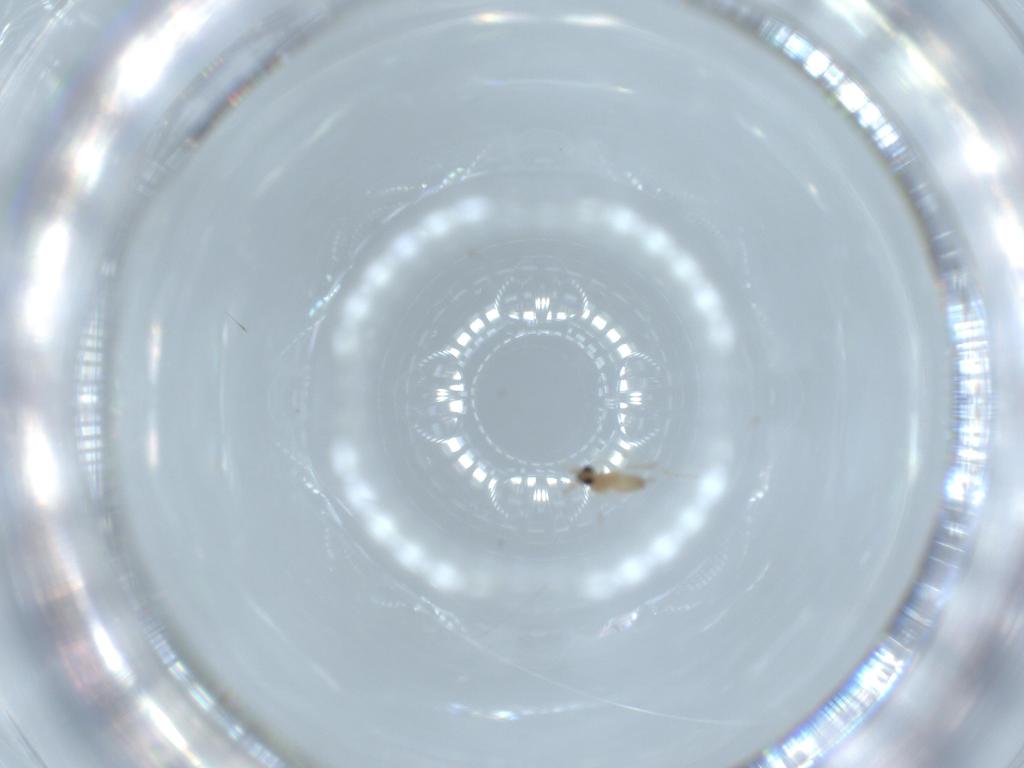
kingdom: Animalia
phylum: Arthropoda
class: Insecta
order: Diptera
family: Cecidomyiidae
